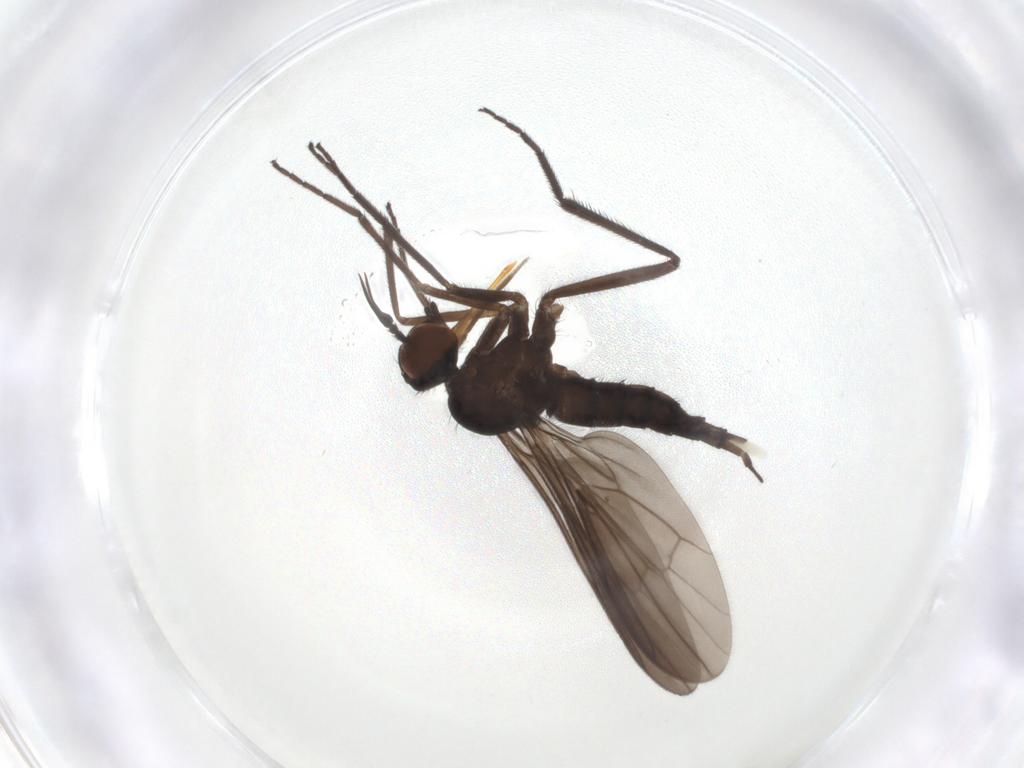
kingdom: Animalia
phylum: Arthropoda
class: Insecta
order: Diptera
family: Empididae
